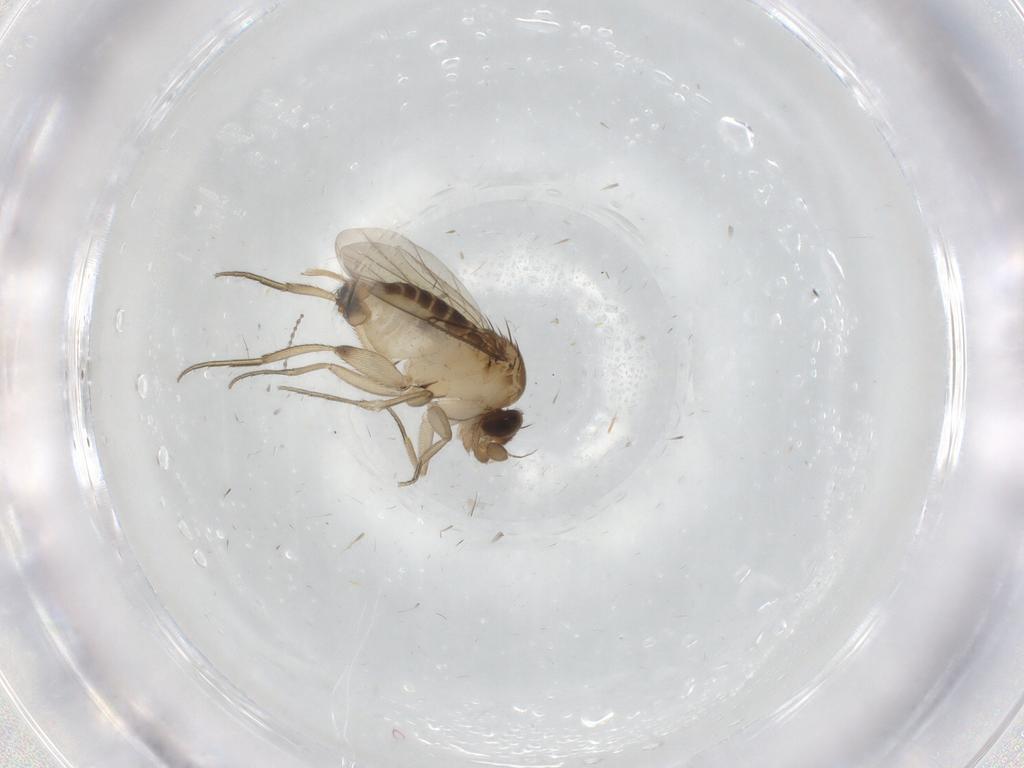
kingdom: Animalia
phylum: Arthropoda
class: Insecta
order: Diptera
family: Phoridae
